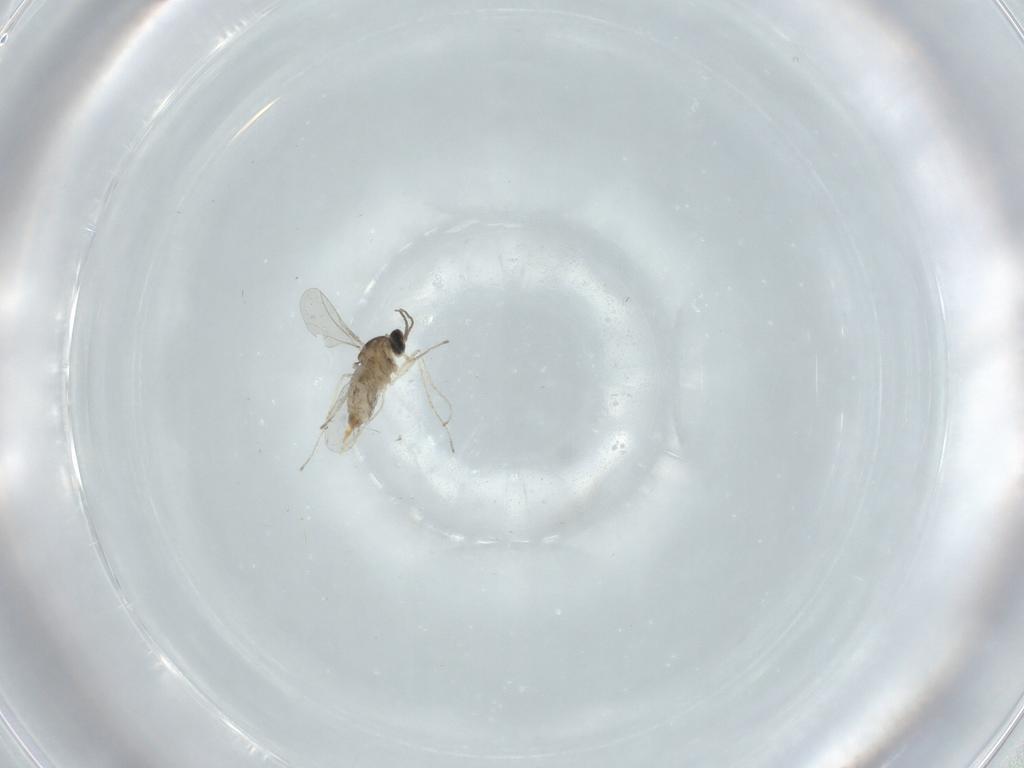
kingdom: Animalia
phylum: Arthropoda
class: Insecta
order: Diptera
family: Cecidomyiidae
